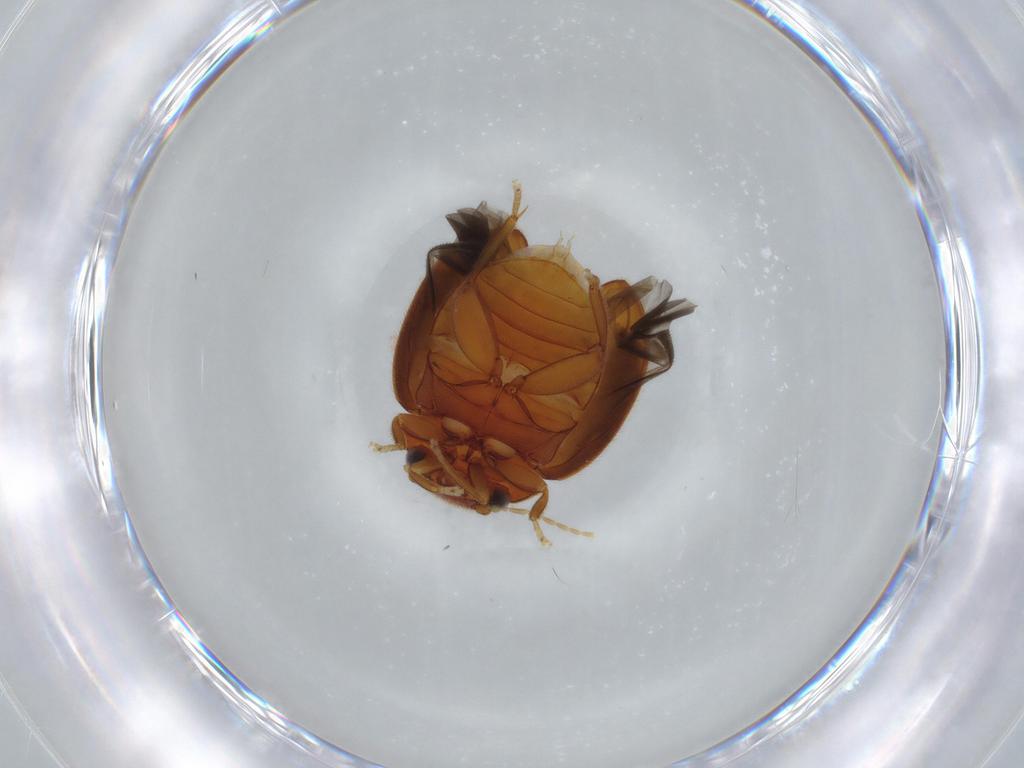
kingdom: Animalia
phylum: Arthropoda
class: Insecta
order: Coleoptera
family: Scirtidae
